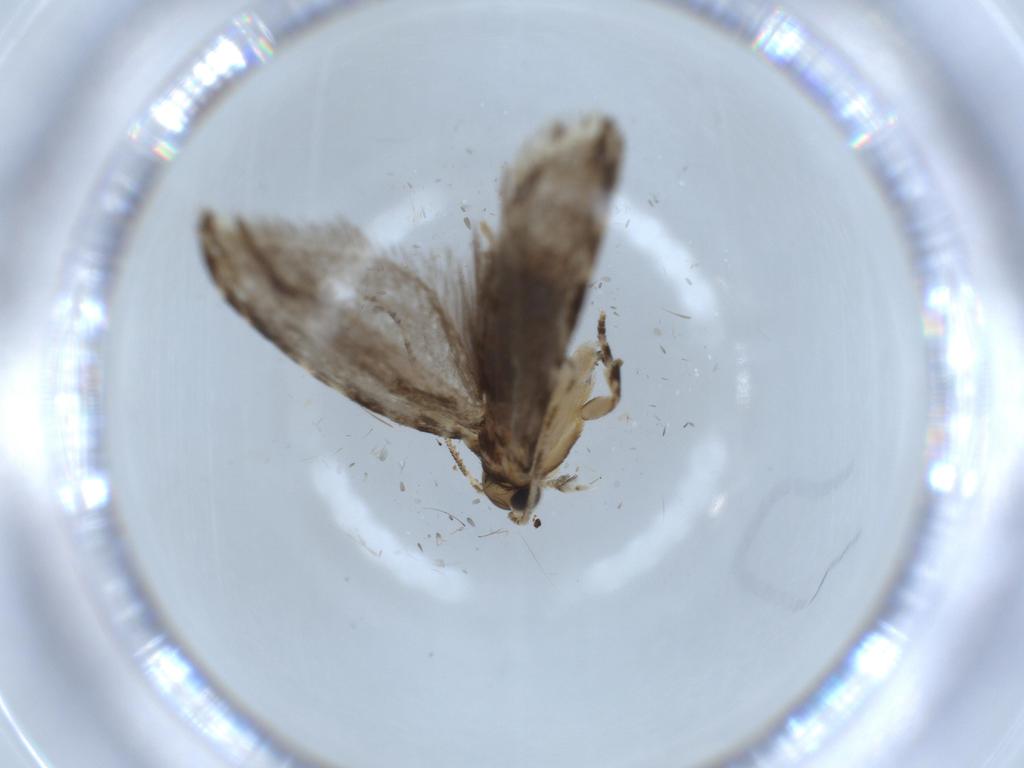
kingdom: Animalia
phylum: Arthropoda
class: Insecta
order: Lepidoptera
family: Tineidae
